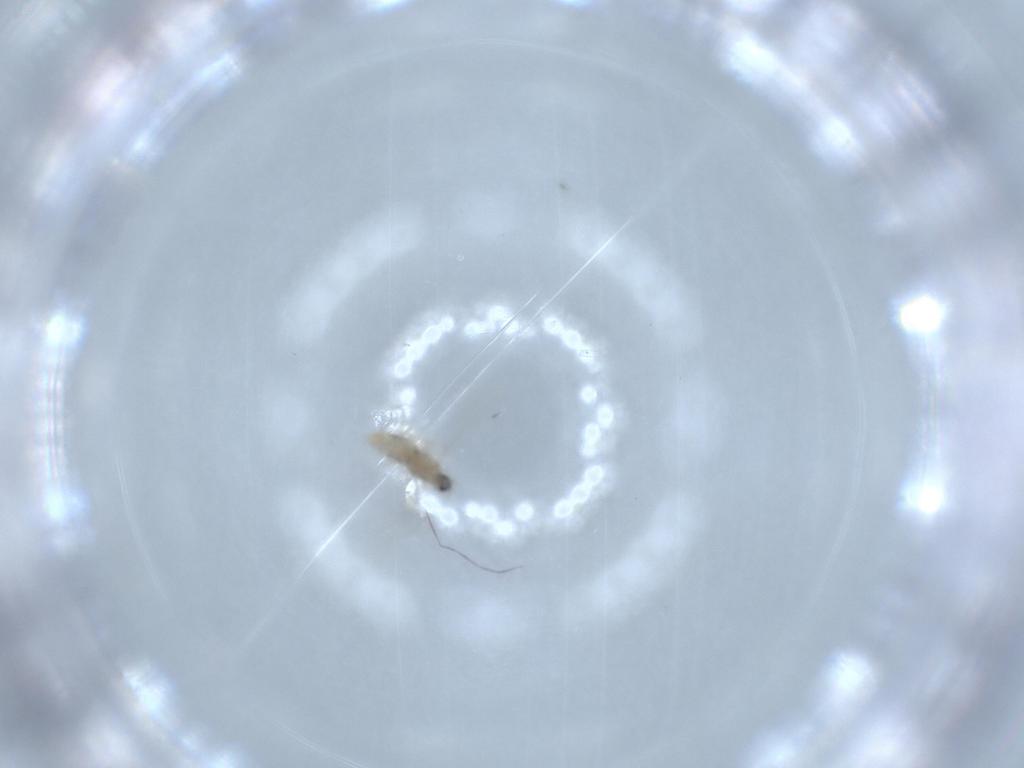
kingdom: Animalia
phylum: Arthropoda
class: Insecta
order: Diptera
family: Cecidomyiidae
